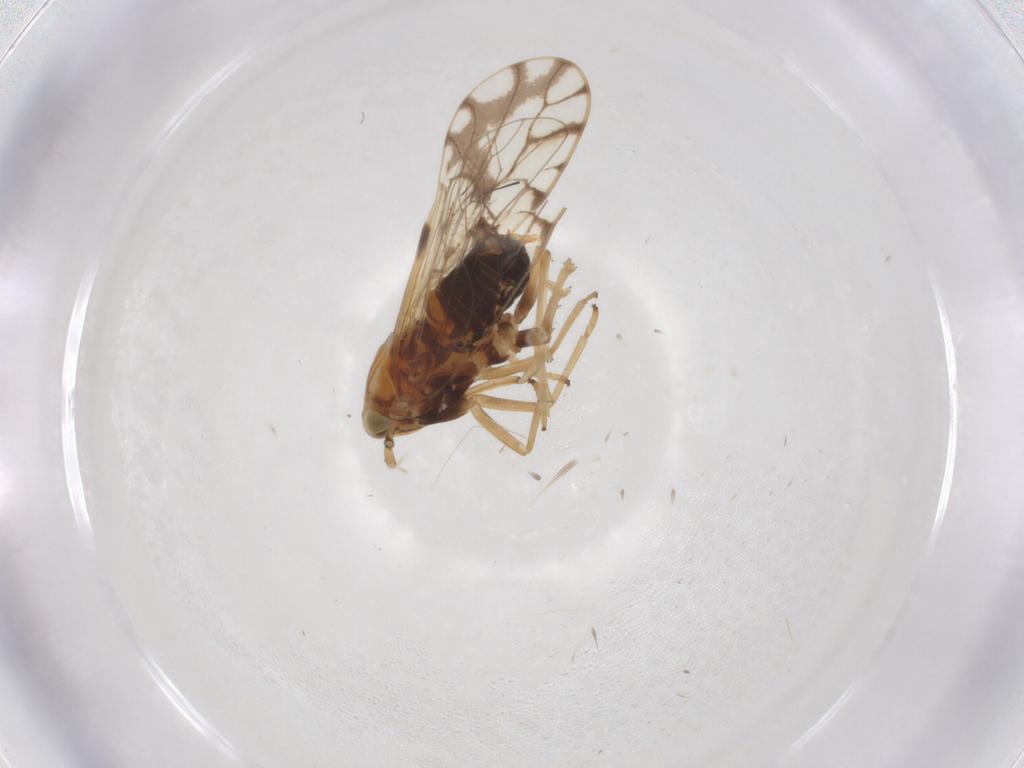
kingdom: Animalia
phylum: Arthropoda
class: Insecta
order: Hemiptera
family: Delphacidae
